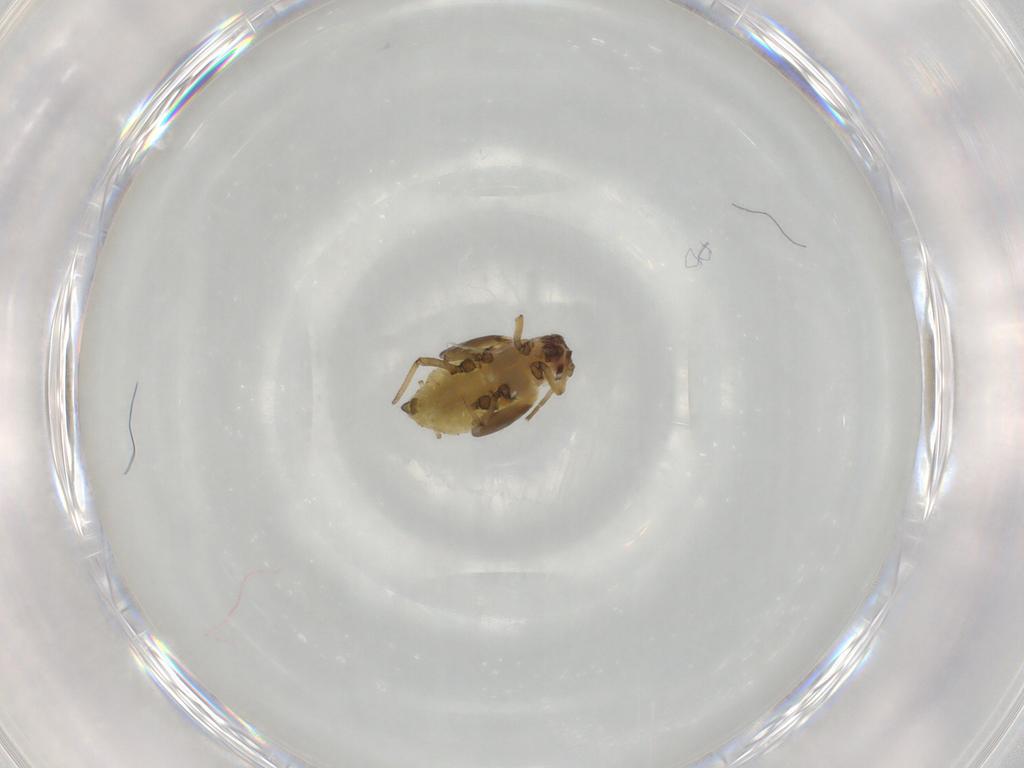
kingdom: Animalia
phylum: Arthropoda
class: Insecta
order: Hemiptera
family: Aphididae
